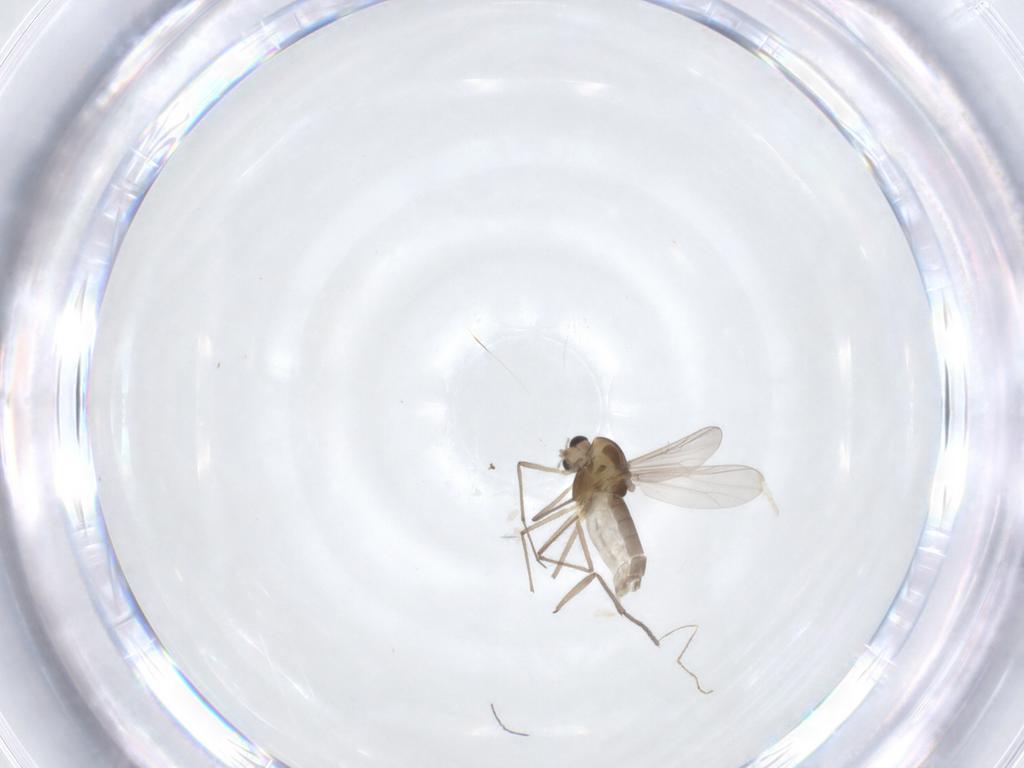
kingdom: Animalia
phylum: Arthropoda
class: Insecta
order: Diptera
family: Sciaridae
